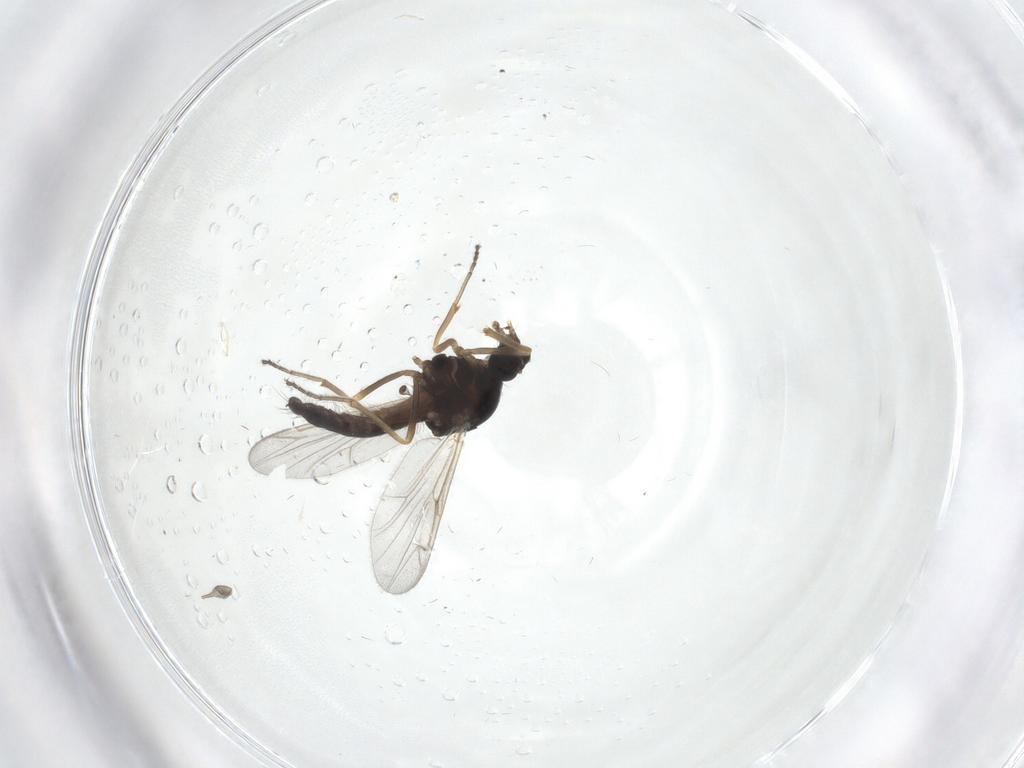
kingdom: Animalia
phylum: Arthropoda
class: Insecta
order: Diptera
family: Ceratopogonidae
